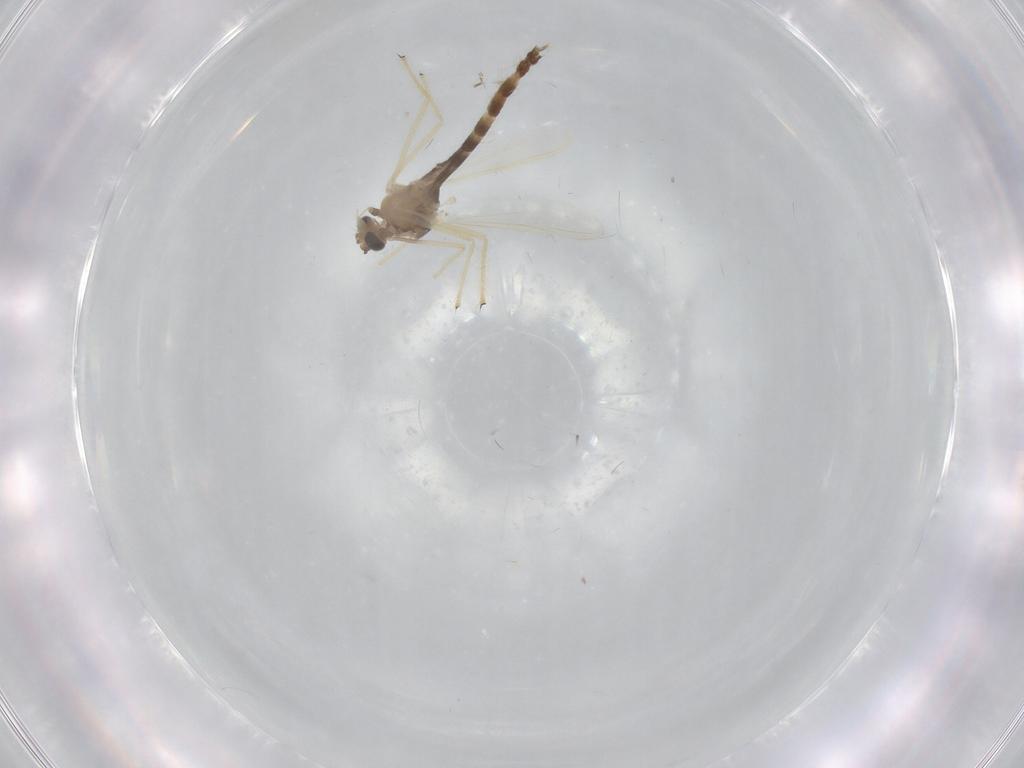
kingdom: Animalia
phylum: Arthropoda
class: Insecta
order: Diptera
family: Chironomidae
